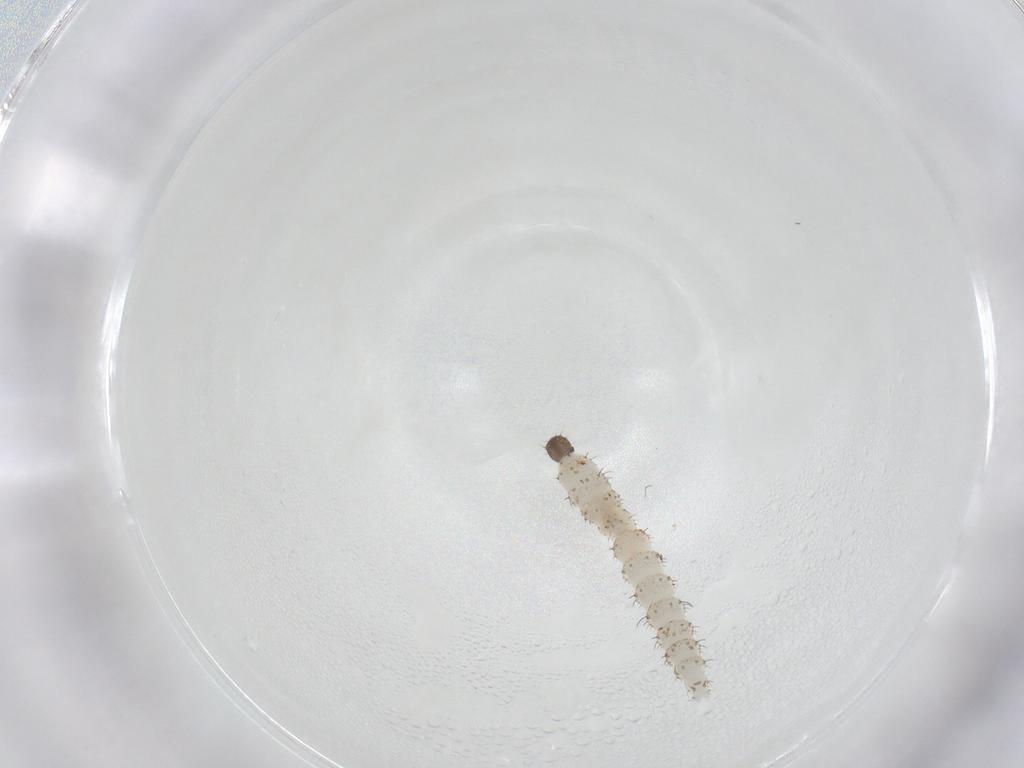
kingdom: Animalia
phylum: Arthropoda
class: Insecta
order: Diptera
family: Ceratopogonidae
